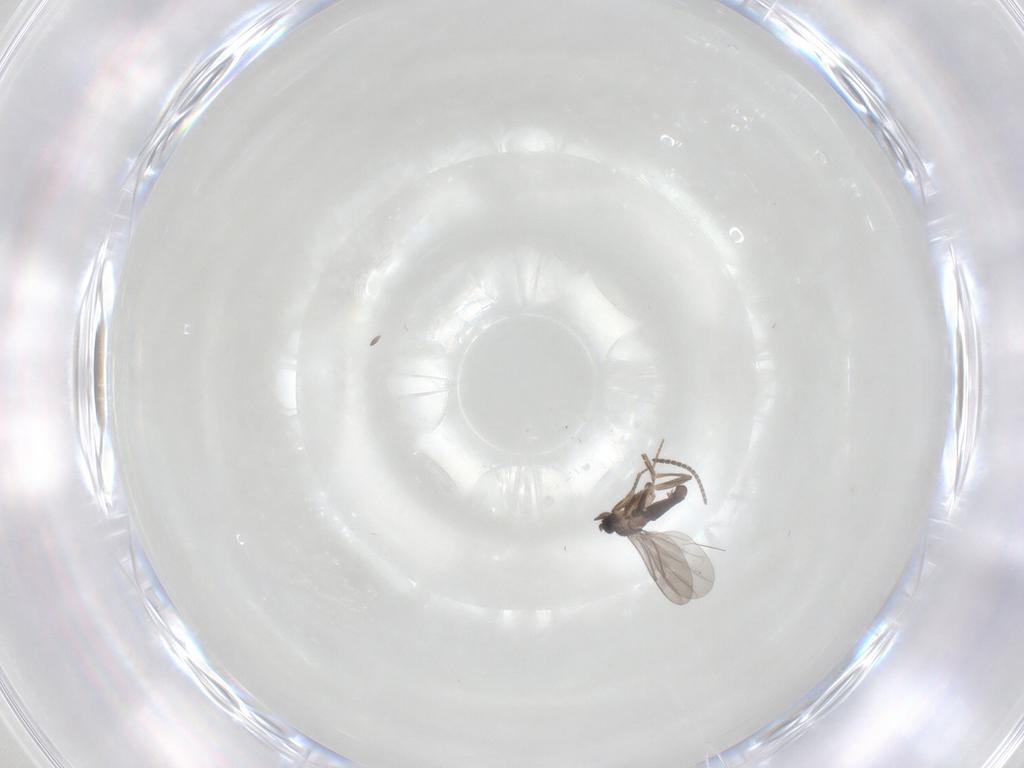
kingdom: Animalia
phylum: Arthropoda
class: Insecta
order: Diptera
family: Sciaridae
